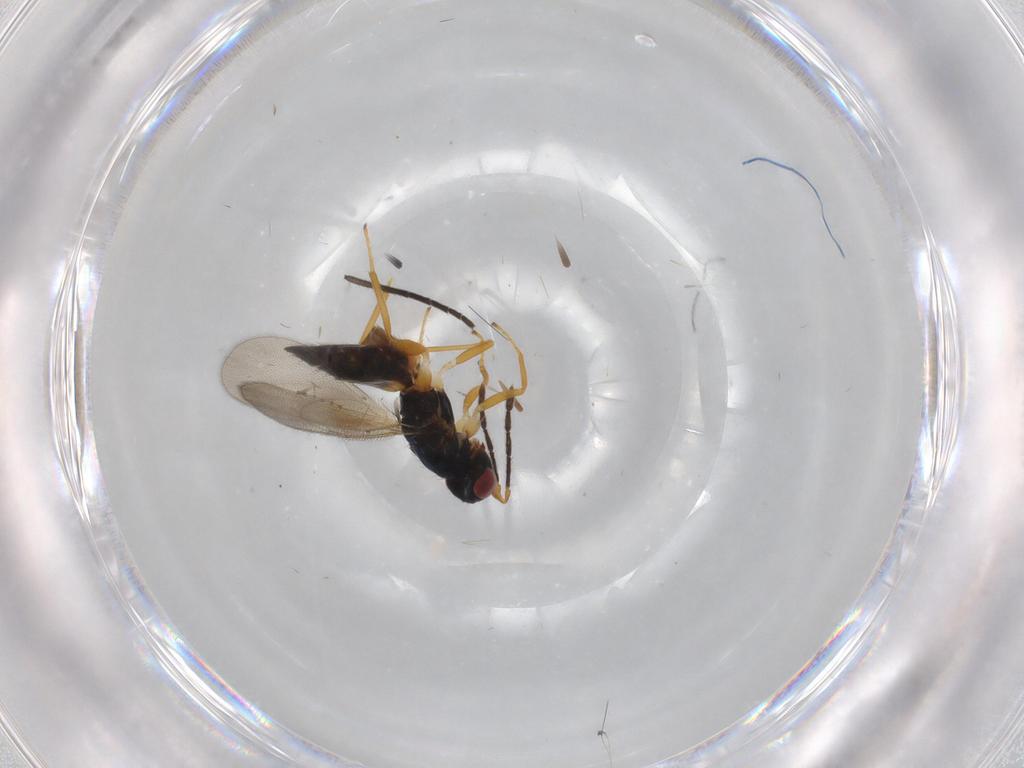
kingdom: Animalia
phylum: Arthropoda
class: Insecta
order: Hymenoptera
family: Eulophidae
